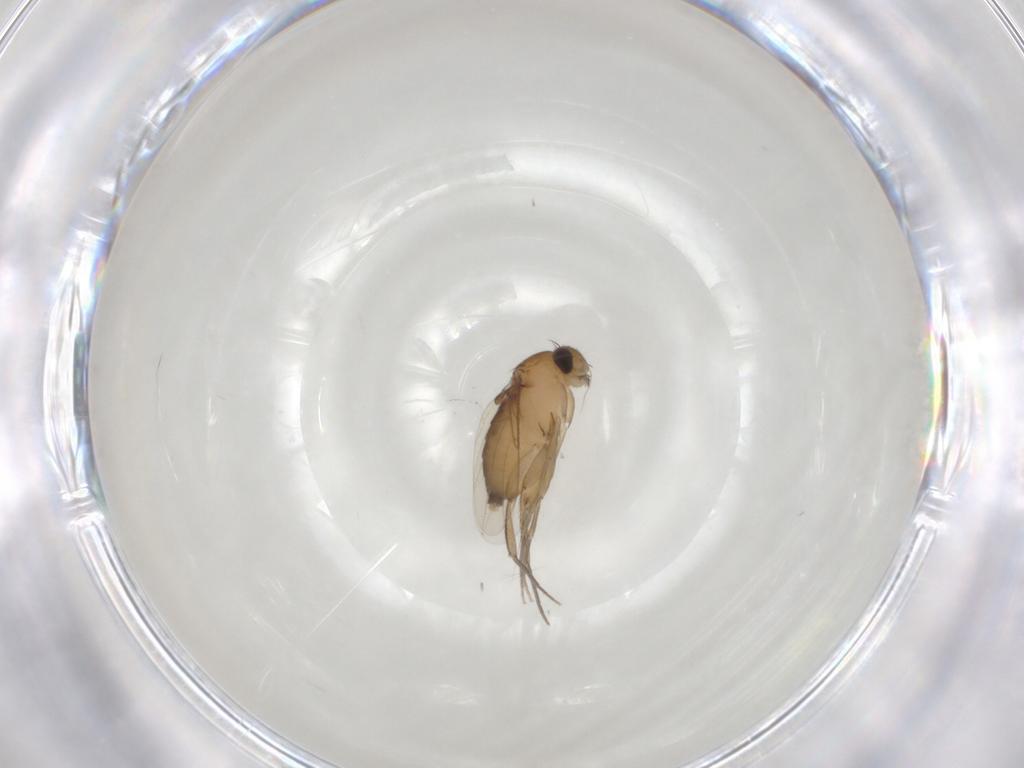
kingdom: Animalia
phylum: Arthropoda
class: Insecta
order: Diptera
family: Phoridae
